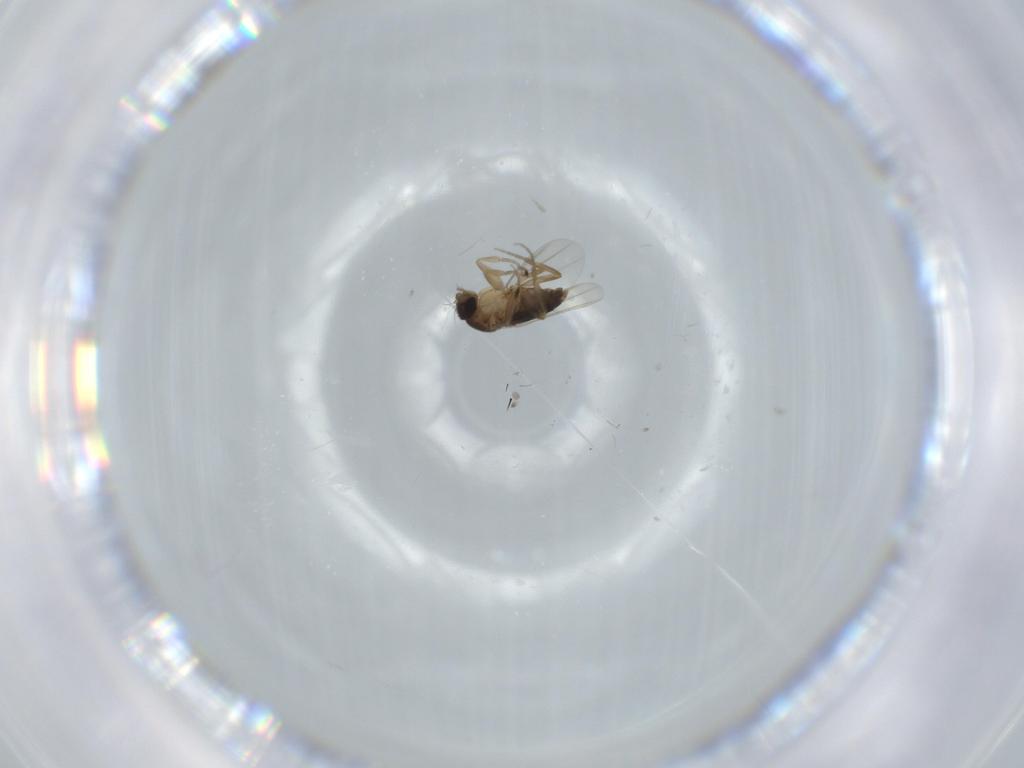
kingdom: Animalia
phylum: Arthropoda
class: Insecta
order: Diptera
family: Phoridae
